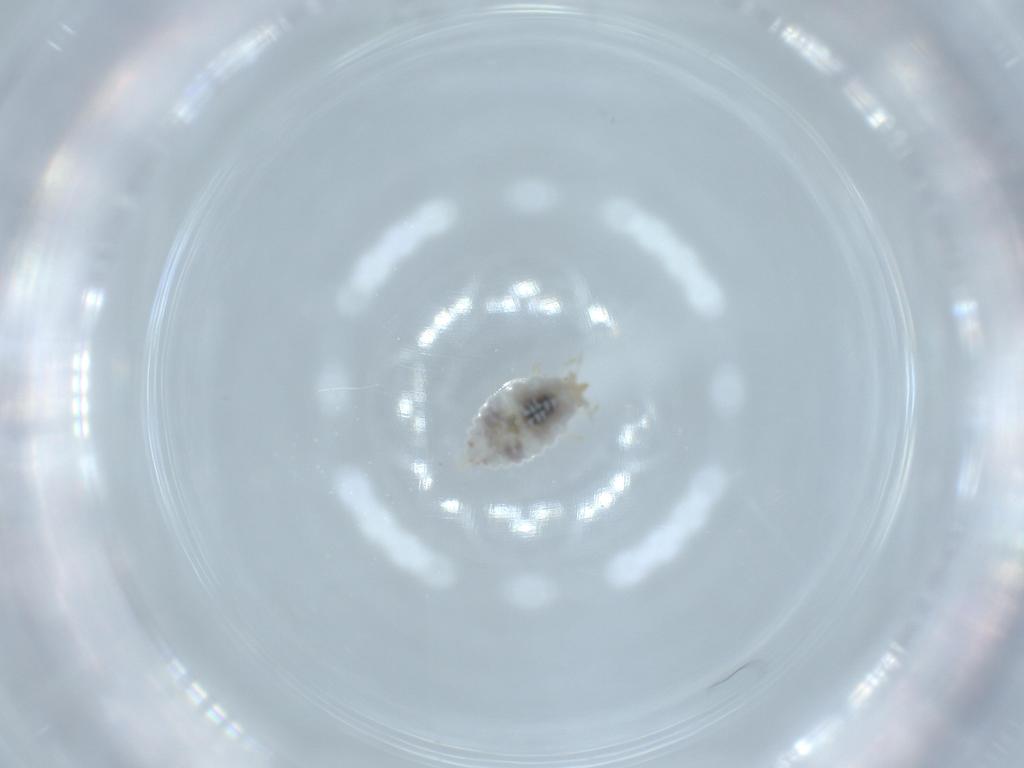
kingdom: Animalia
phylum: Arthropoda
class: Insecta
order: Neuroptera
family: Coniopterygidae
